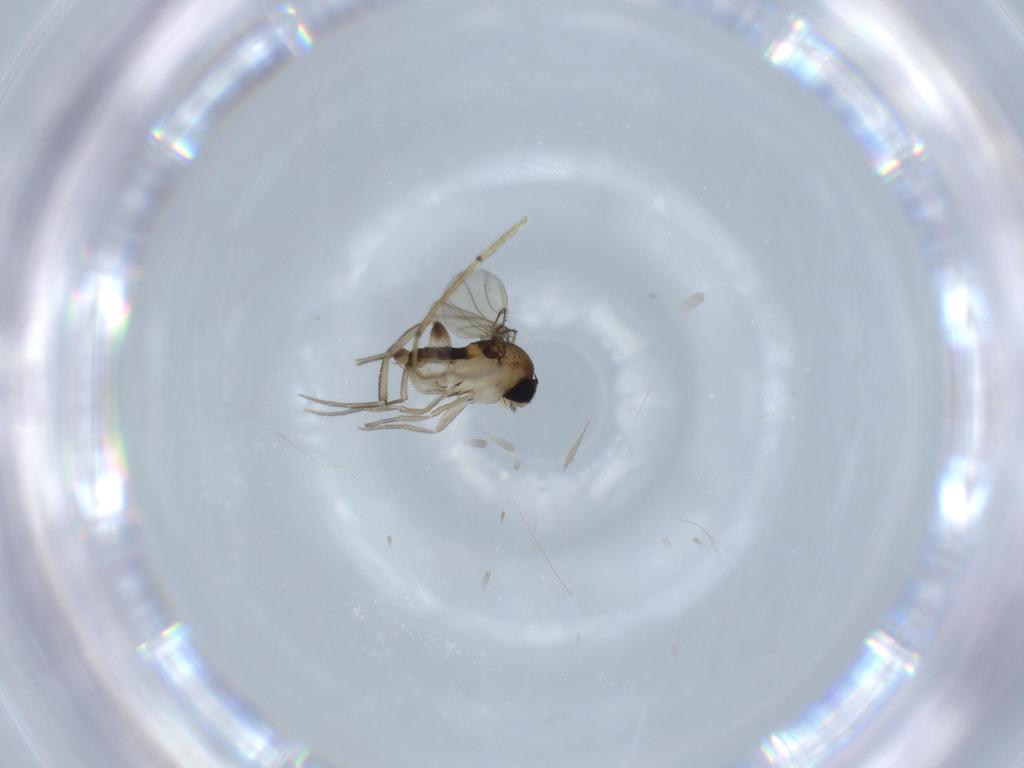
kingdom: Animalia
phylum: Arthropoda
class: Insecta
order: Diptera
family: Phoridae
